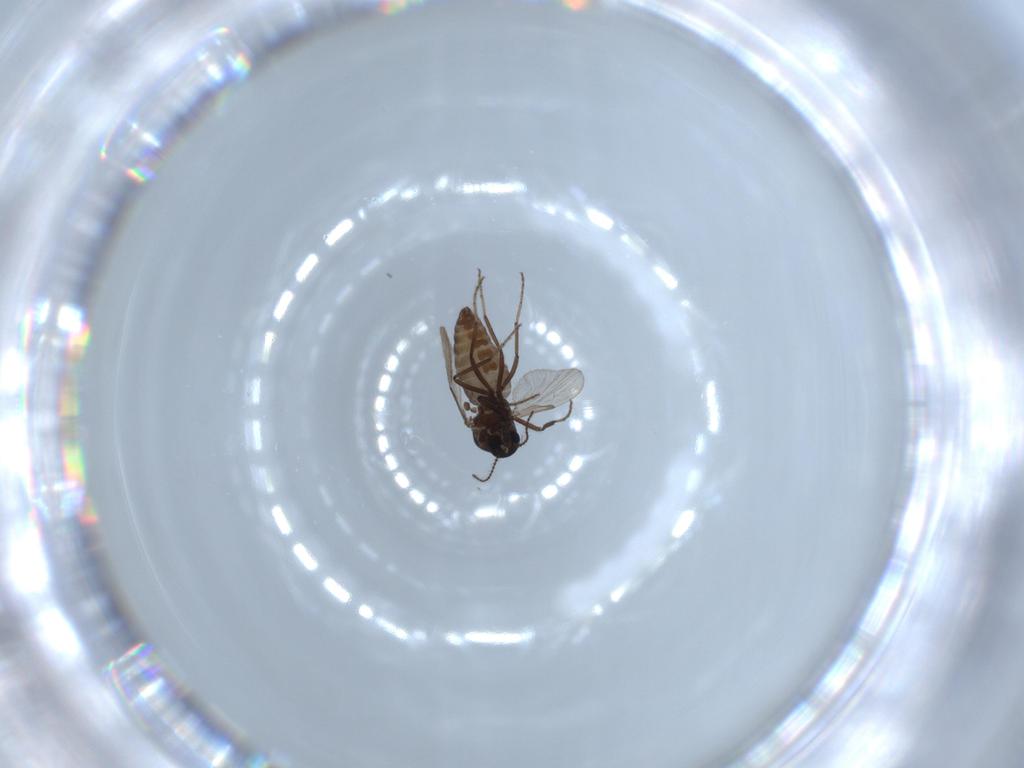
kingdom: Animalia
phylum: Arthropoda
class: Insecta
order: Diptera
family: Ceratopogonidae
